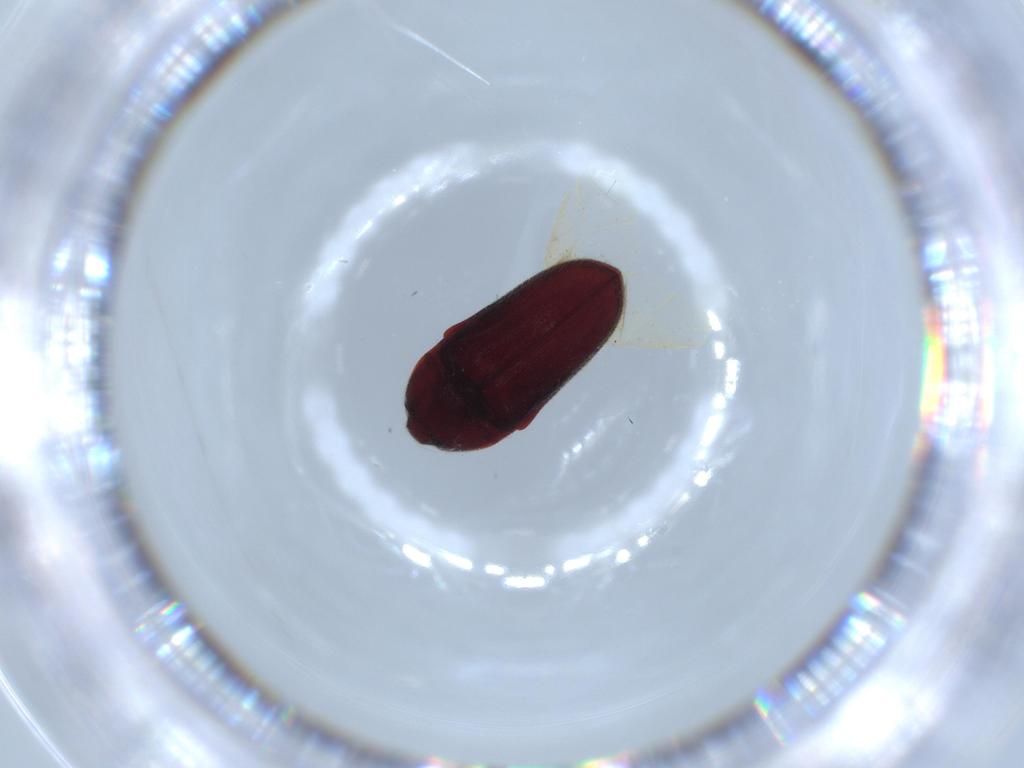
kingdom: Animalia
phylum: Arthropoda
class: Insecta
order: Coleoptera
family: Throscidae
